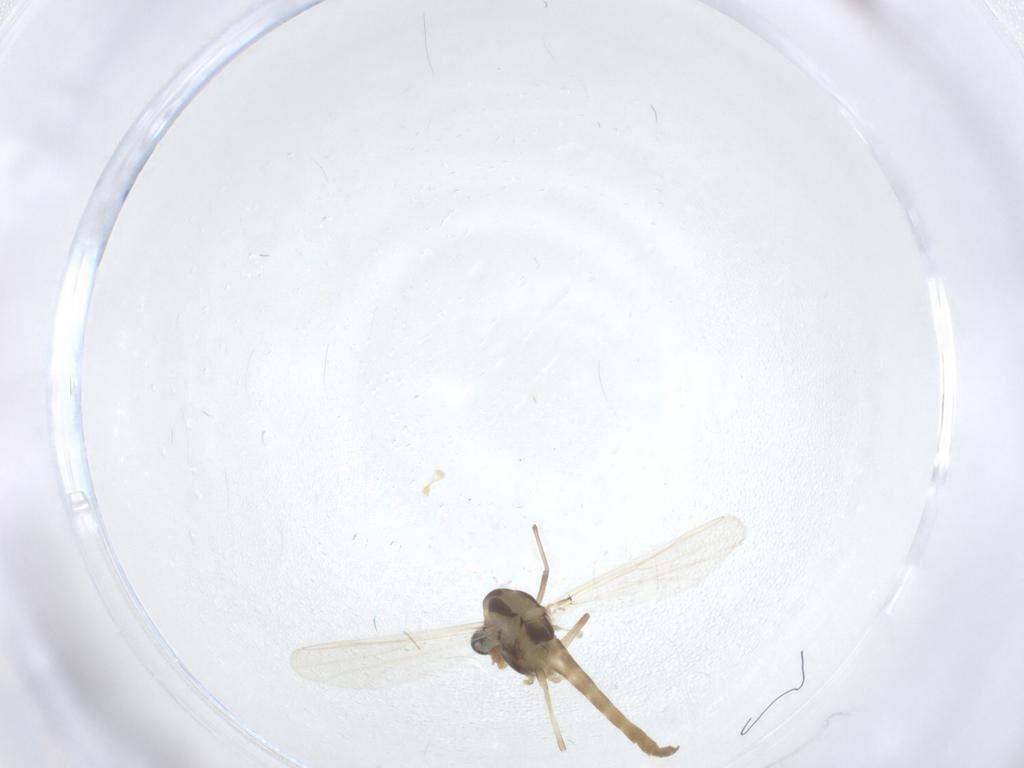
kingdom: Animalia
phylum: Arthropoda
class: Insecta
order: Diptera
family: Chironomidae
